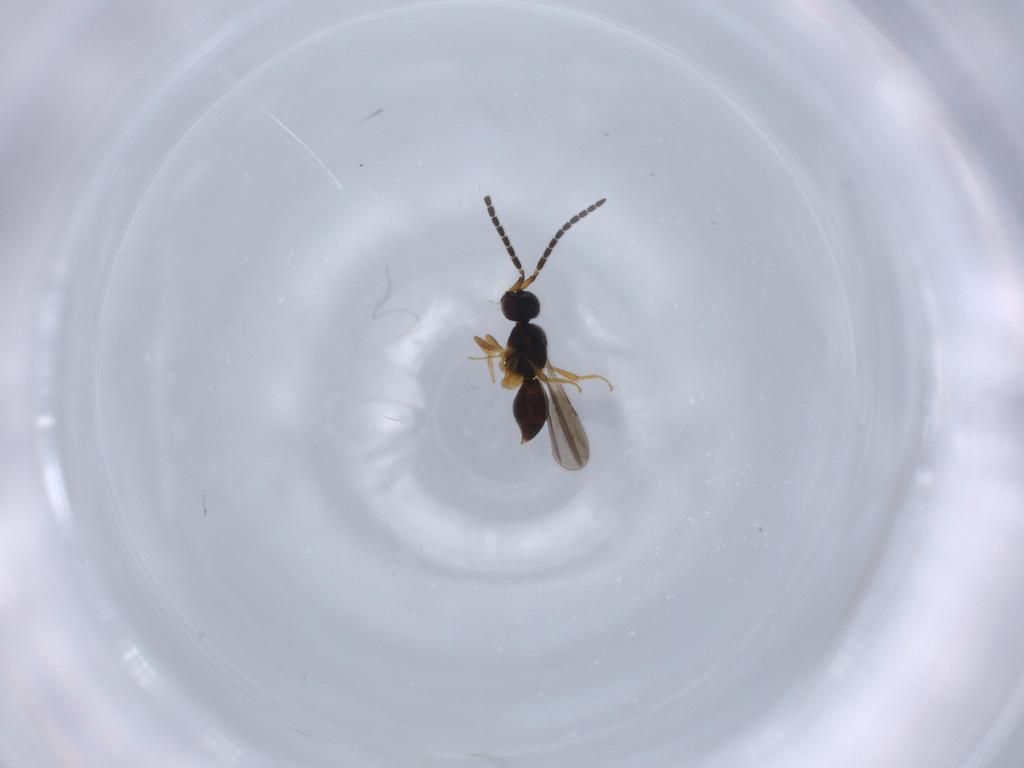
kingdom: Animalia
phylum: Arthropoda
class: Insecta
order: Hymenoptera
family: Ceraphronidae
